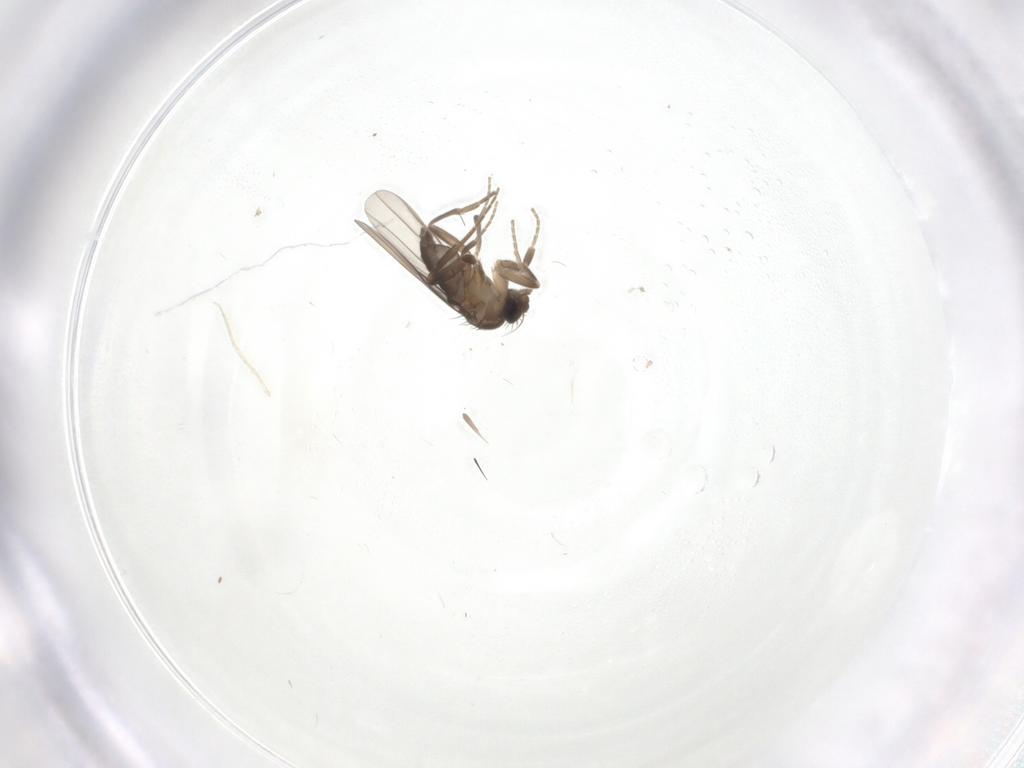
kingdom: Animalia
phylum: Arthropoda
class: Insecta
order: Diptera
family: Phoridae
